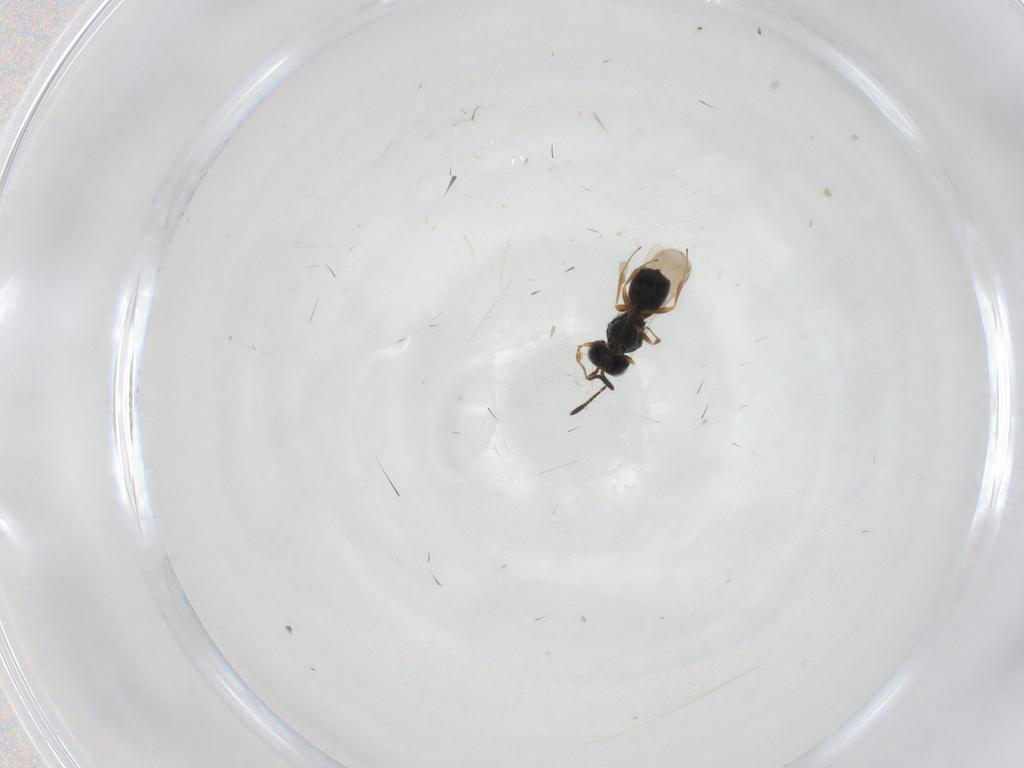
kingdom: Animalia
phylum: Arthropoda
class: Insecta
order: Hymenoptera
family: Scelionidae
